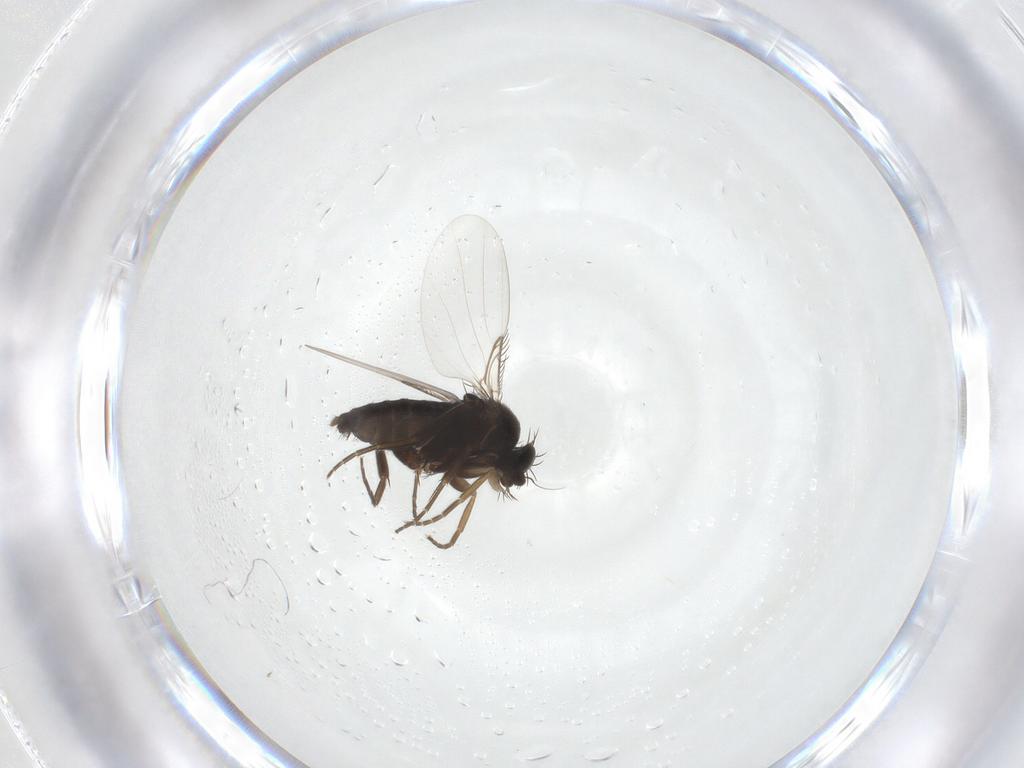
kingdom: Animalia
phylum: Arthropoda
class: Insecta
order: Diptera
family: Phoridae
